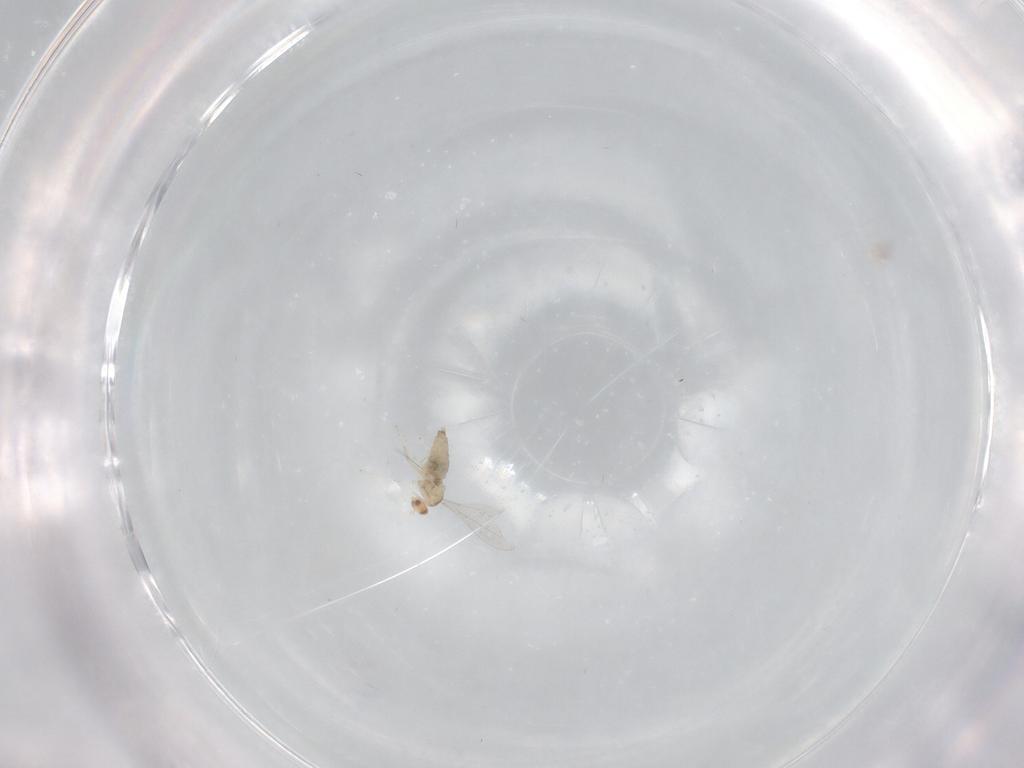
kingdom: Animalia
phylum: Arthropoda
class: Insecta
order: Diptera
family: Cecidomyiidae
